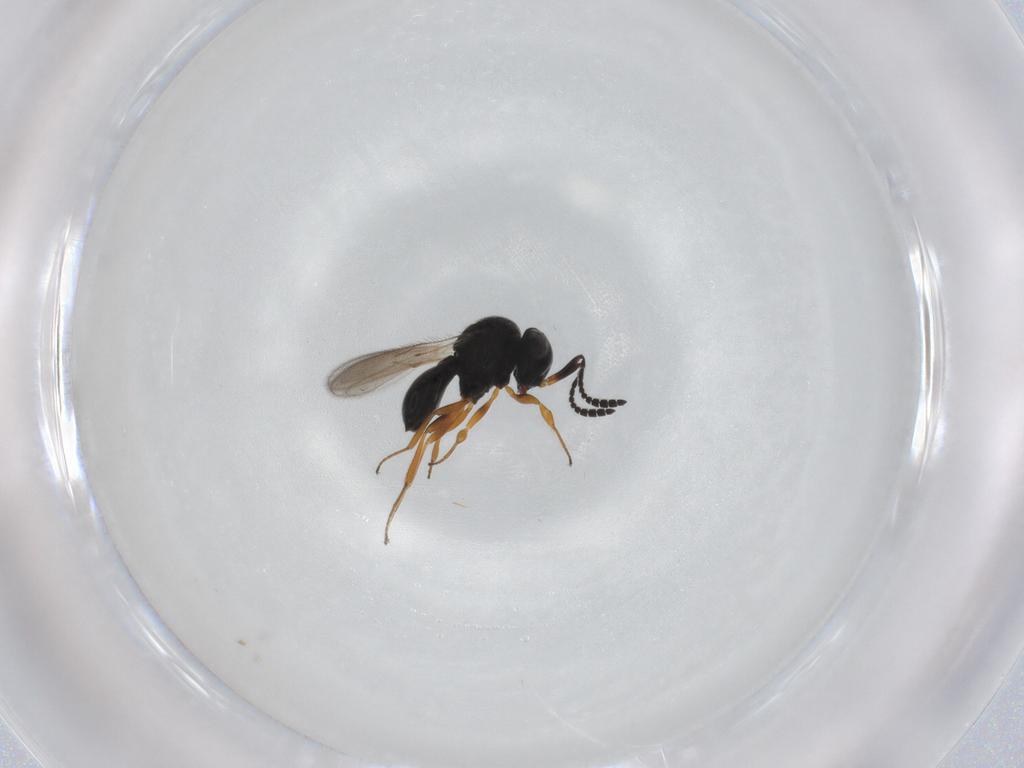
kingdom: Animalia
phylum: Arthropoda
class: Insecta
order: Hymenoptera
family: Scelionidae
